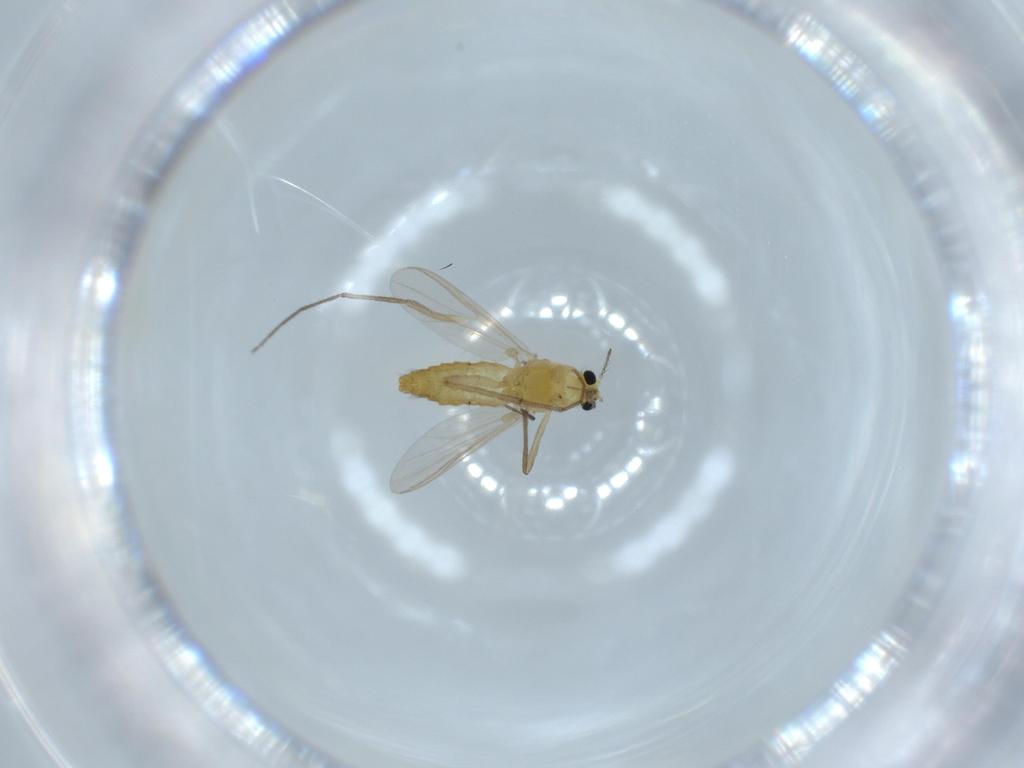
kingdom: Animalia
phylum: Arthropoda
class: Insecta
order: Diptera
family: Chironomidae
